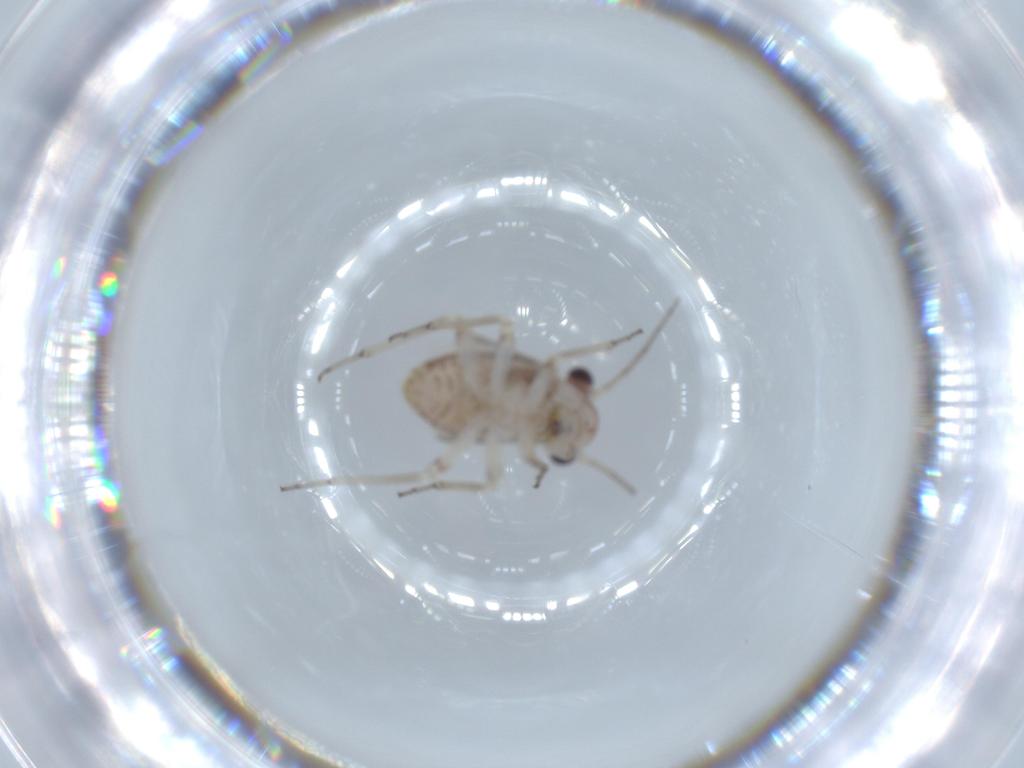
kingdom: Animalia
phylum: Arthropoda
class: Insecta
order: Psocodea
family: Psocidae
